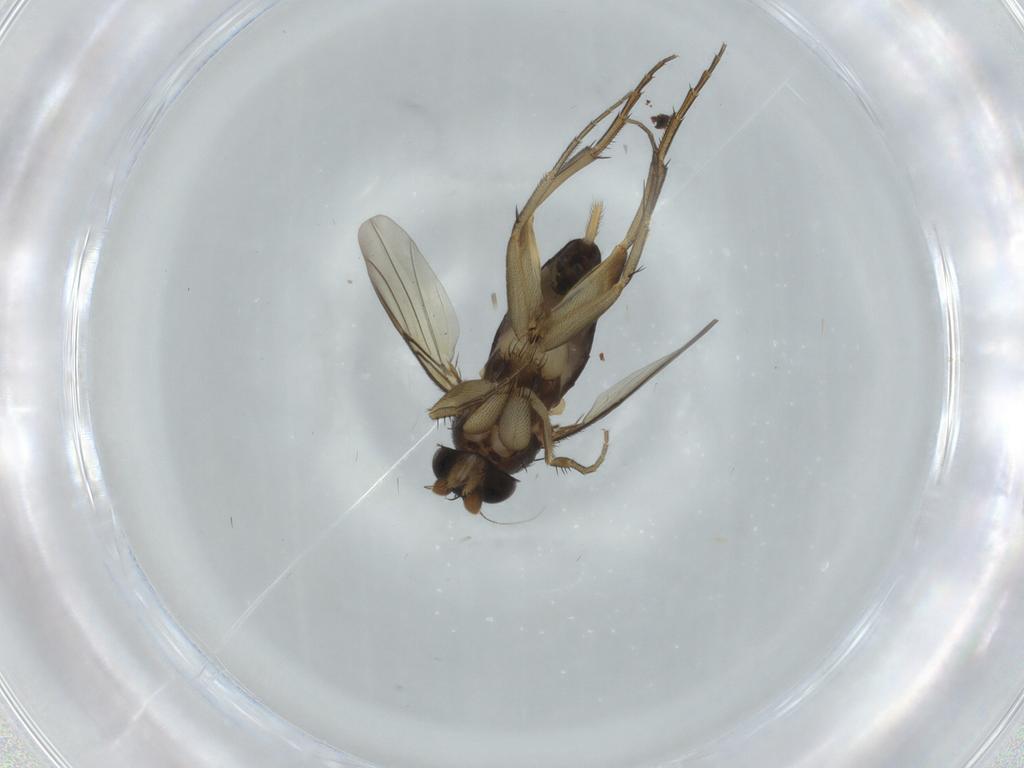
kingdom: Animalia
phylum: Arthropoda
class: Insecta
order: Diptera
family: Phoridae
